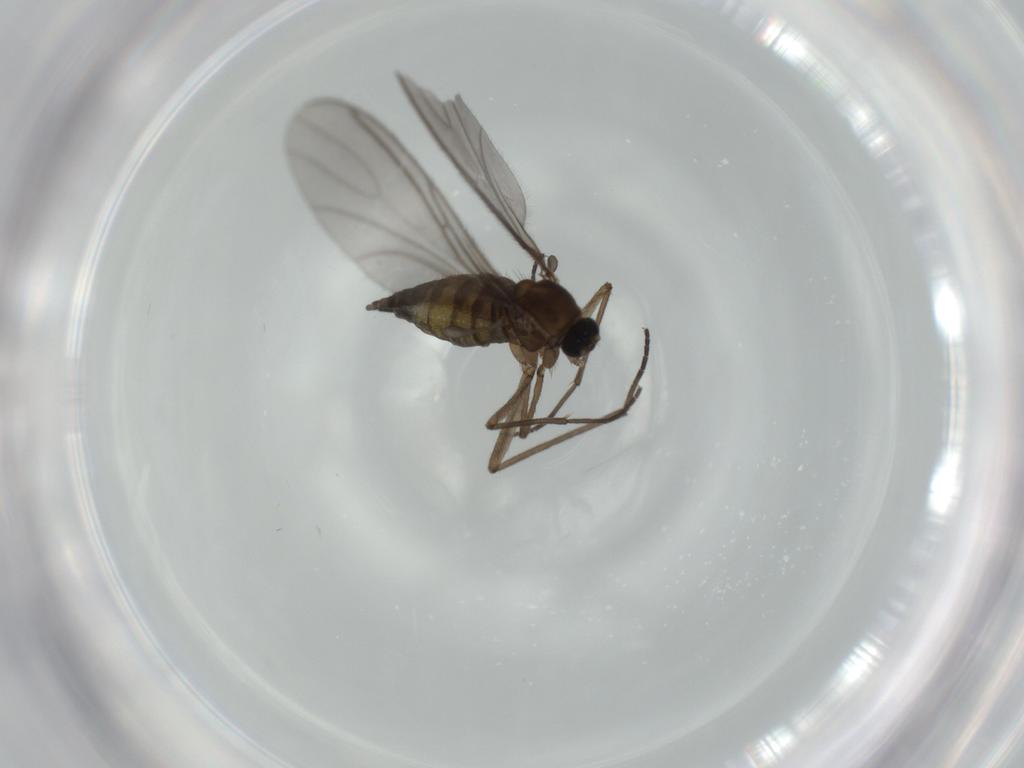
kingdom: Animalia
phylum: Arthropoda
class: Insecta
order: Diptera
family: Sciaridae
